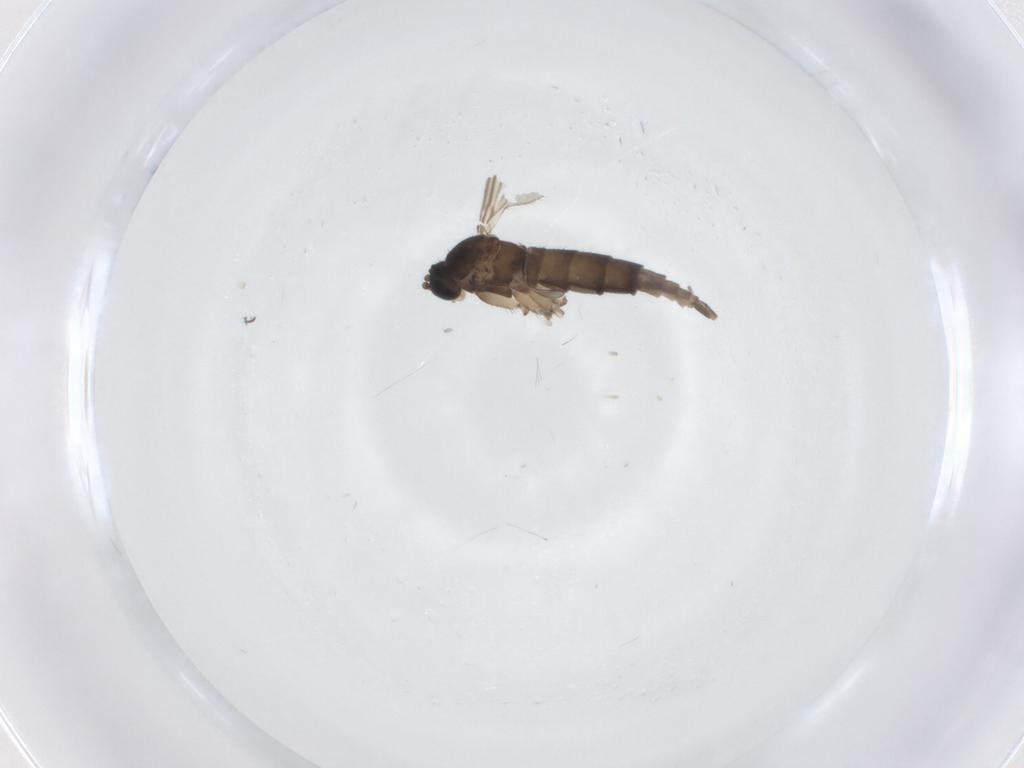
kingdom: Animalia
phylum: Arthropoda
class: Insecta
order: Diptera
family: Sciaridae
